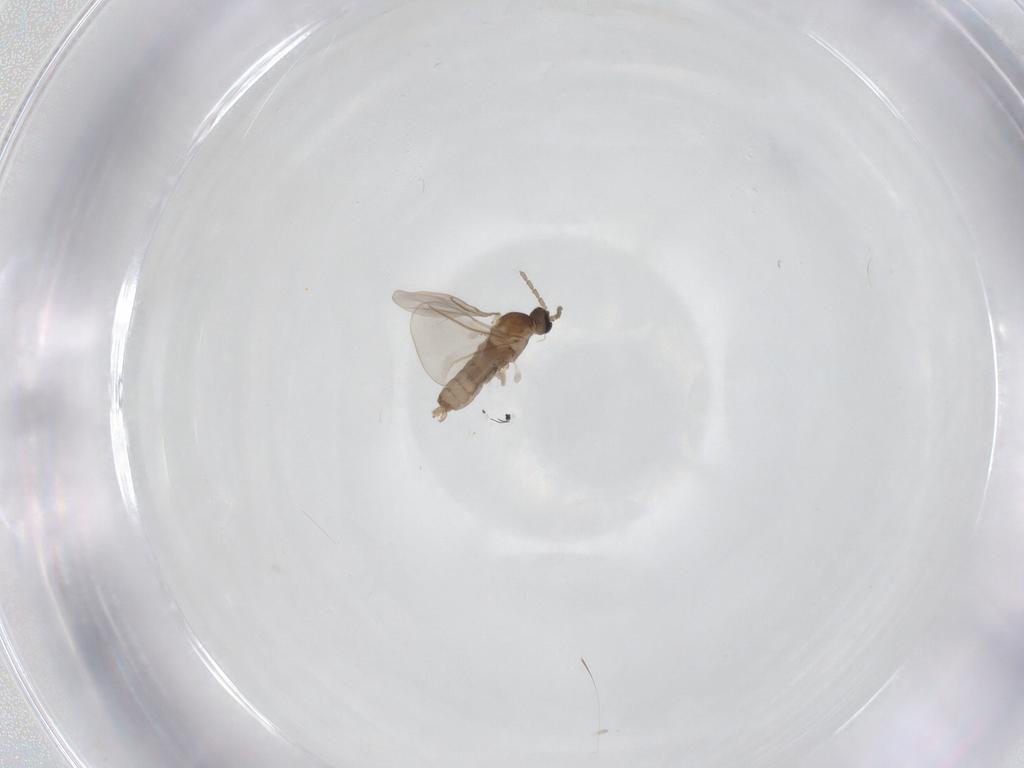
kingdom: Animalia
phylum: Arthropoda
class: Insecta
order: Diptera
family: Cecidomyiidae
